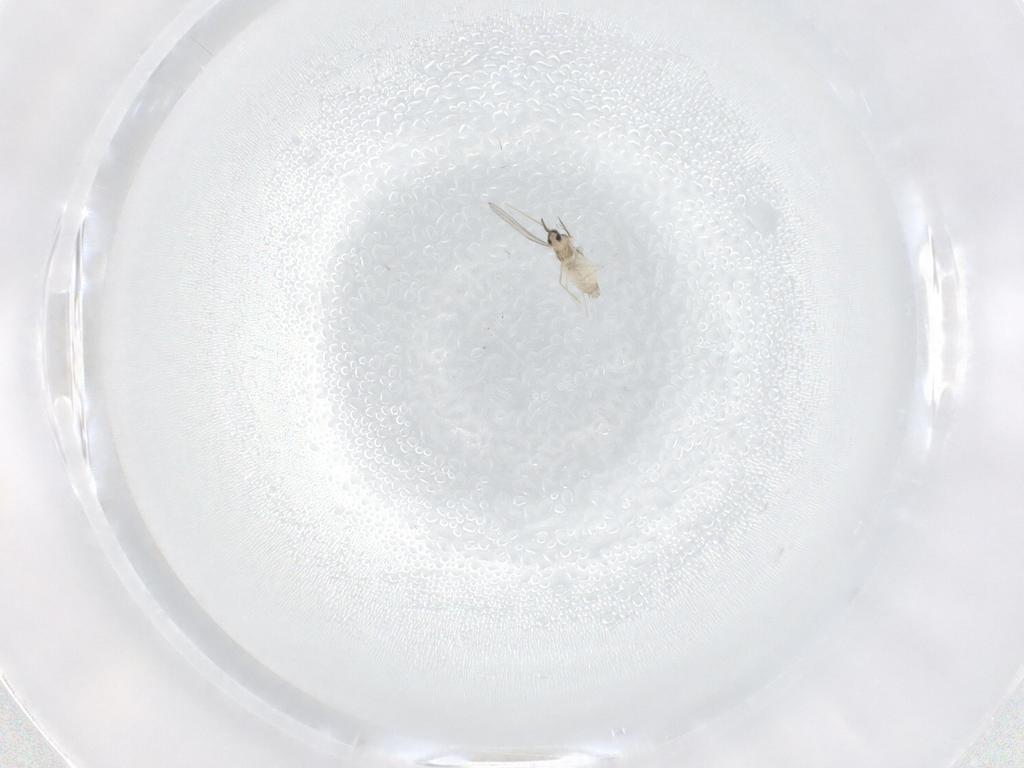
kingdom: Animalia
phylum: Arthropoda
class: Insecta
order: Diptera
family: Cecidomyiidae
